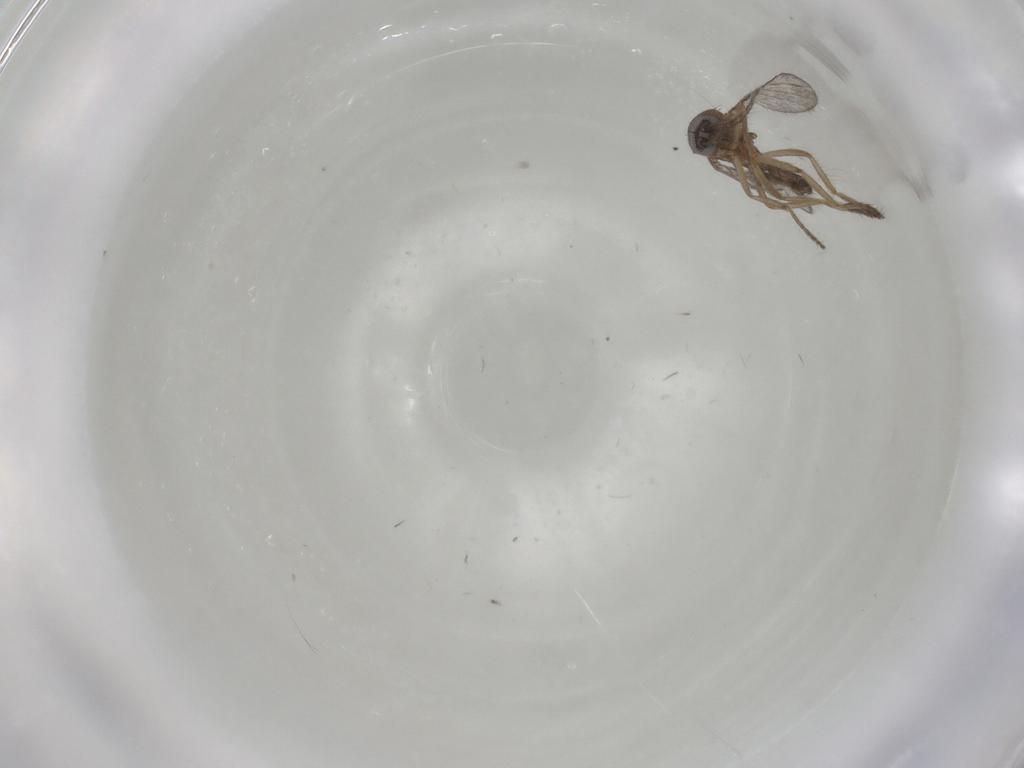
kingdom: Animalia
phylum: Arthropoda
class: Insecta
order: Diptera
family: Ceratopogonidae
